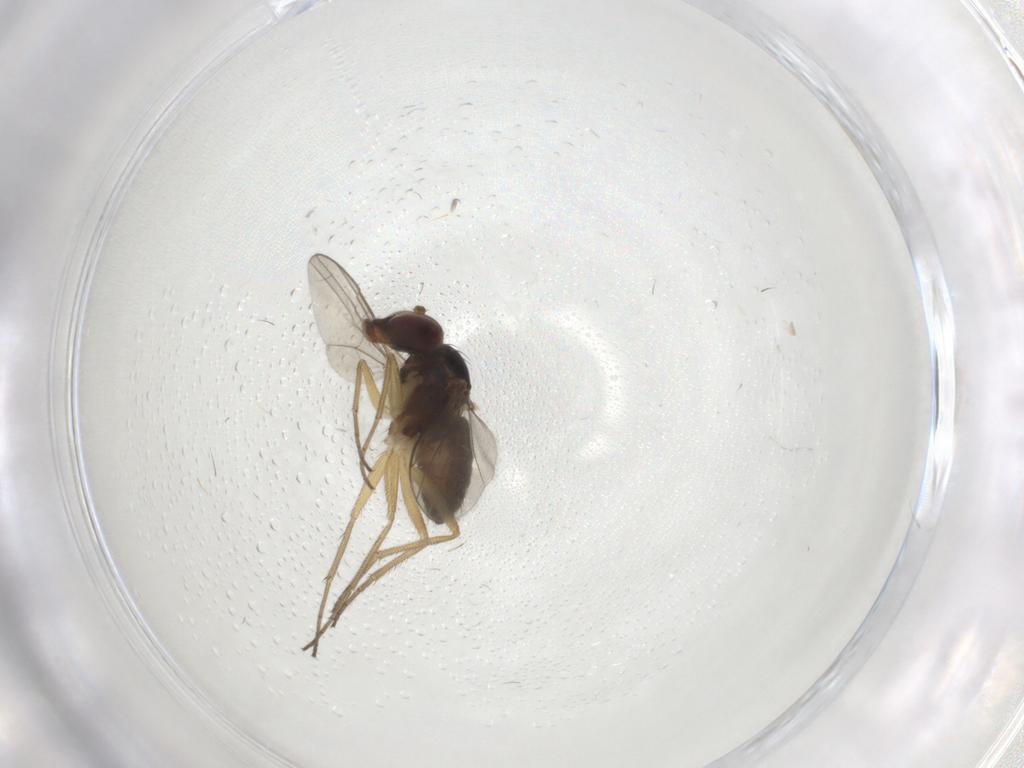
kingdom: Animalia
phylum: Arthropoda
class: Insecta
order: Diptera
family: Dolichopodidae
